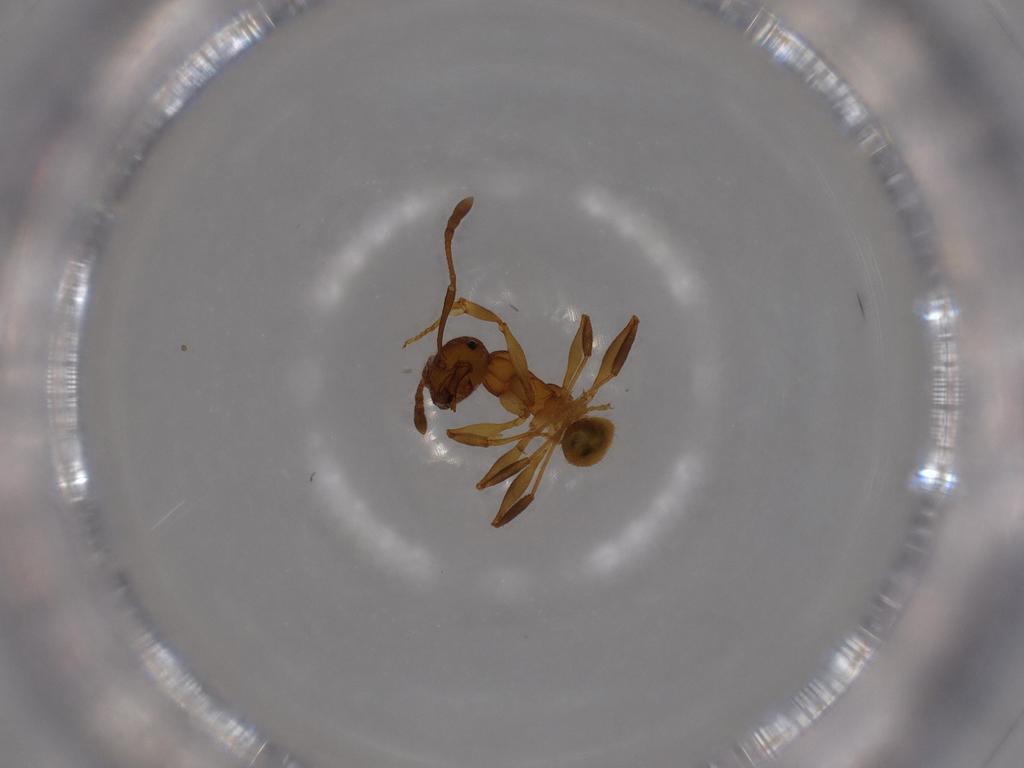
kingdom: Animalia
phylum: Arthropoda
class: Insecta
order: Hymenoptera
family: Formicidae
